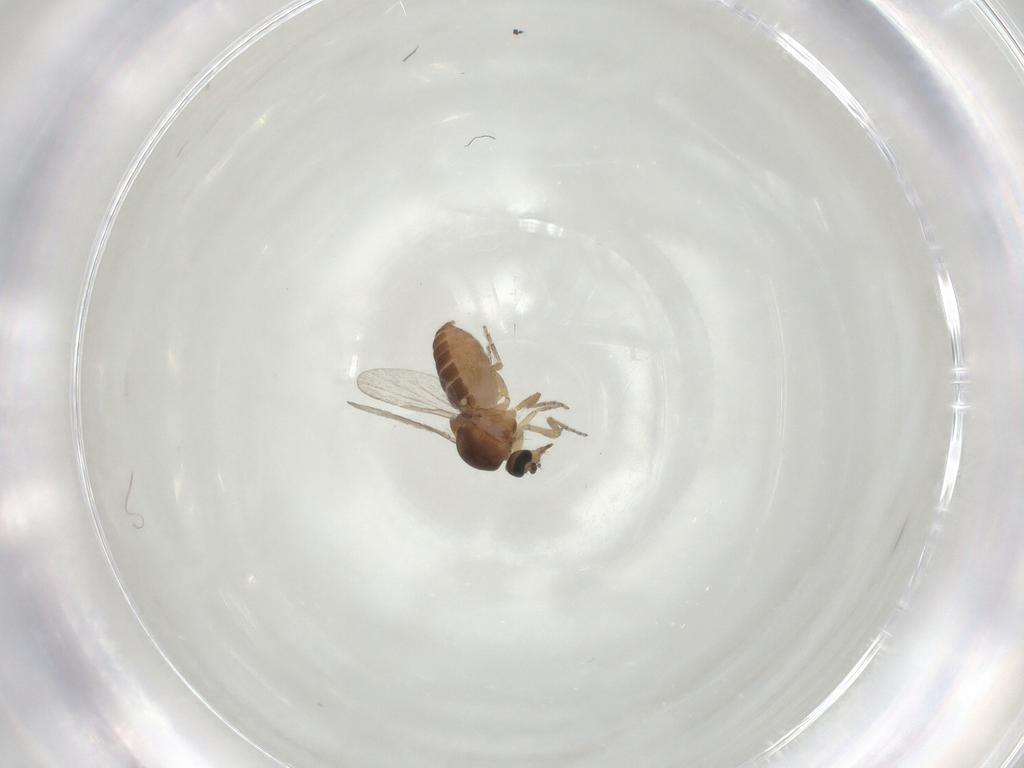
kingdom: Animalia
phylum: Arthropoda
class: Insecta
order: Diptera
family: Ceratopogonidae
